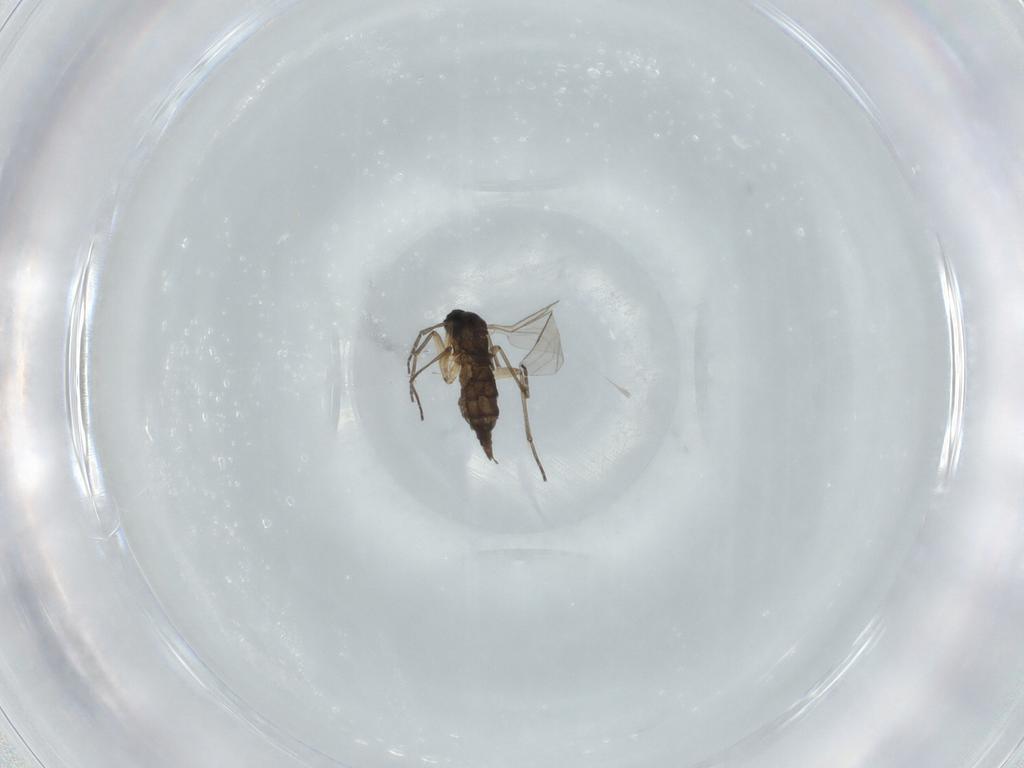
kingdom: Animalia
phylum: Arthropoda
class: Insecta
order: Diptera
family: Sciaridae
